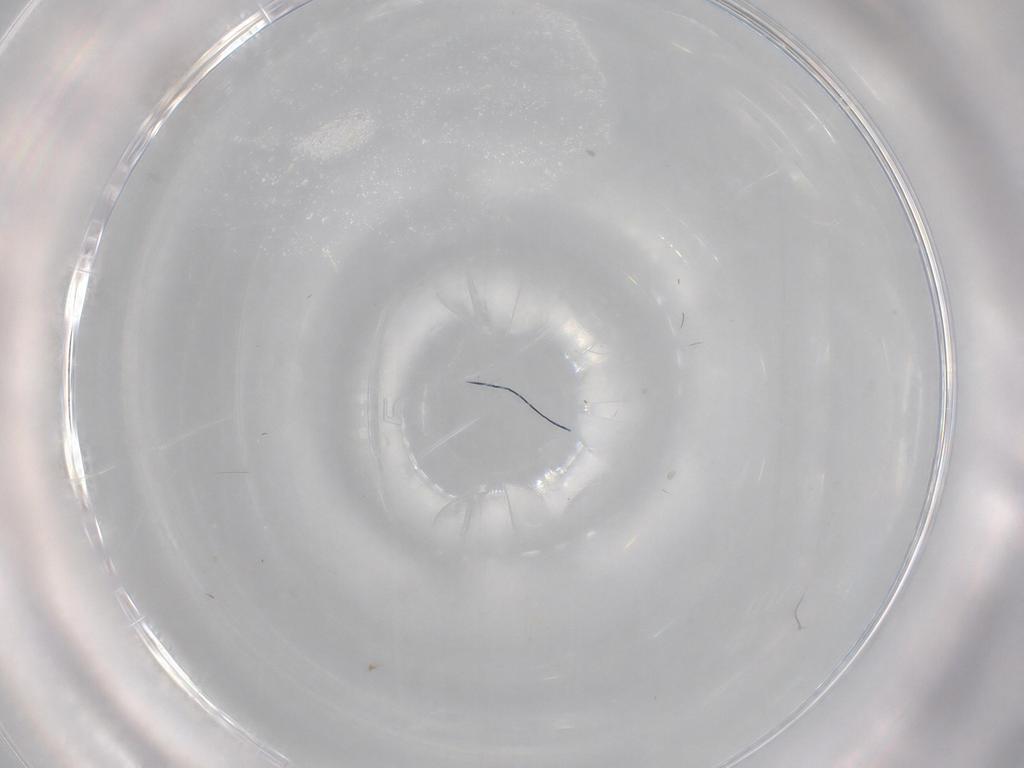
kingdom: Animalia
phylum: Arthropoda
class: Insecta
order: Diptera
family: Cecidomyiidae
